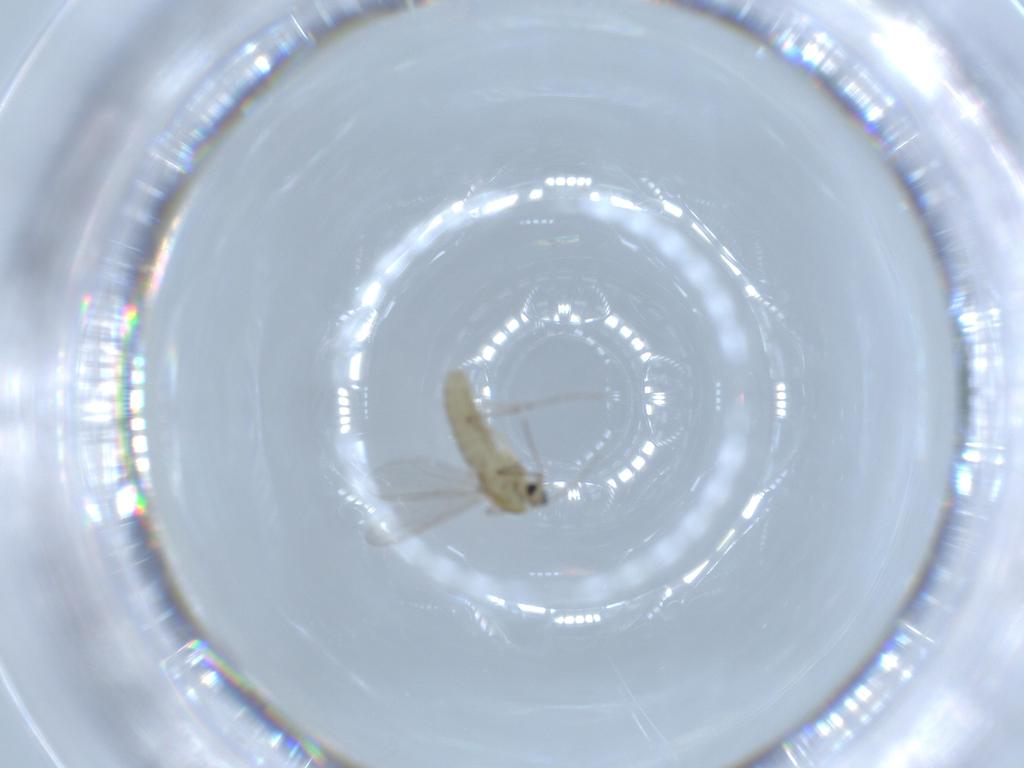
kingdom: Animalia
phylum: Arthropoda
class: Insecta
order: Diptera
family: Chironomidae
